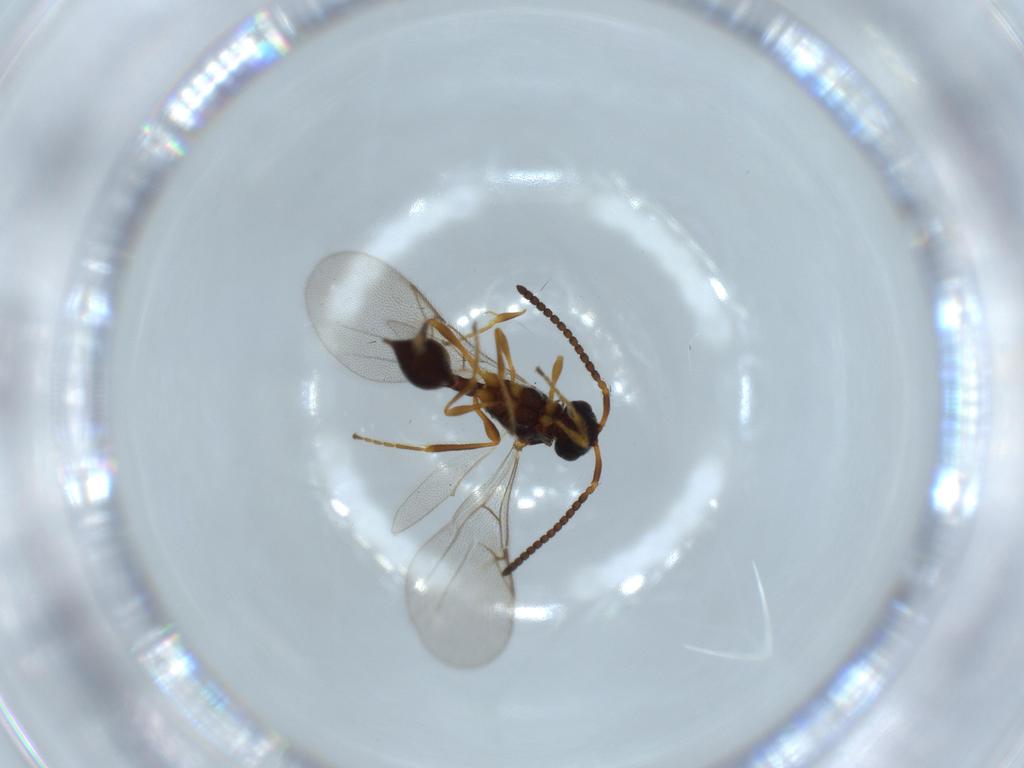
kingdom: Animalia
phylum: Arthropoda
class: Insecta
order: Hymenoptera
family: Diapriidae
